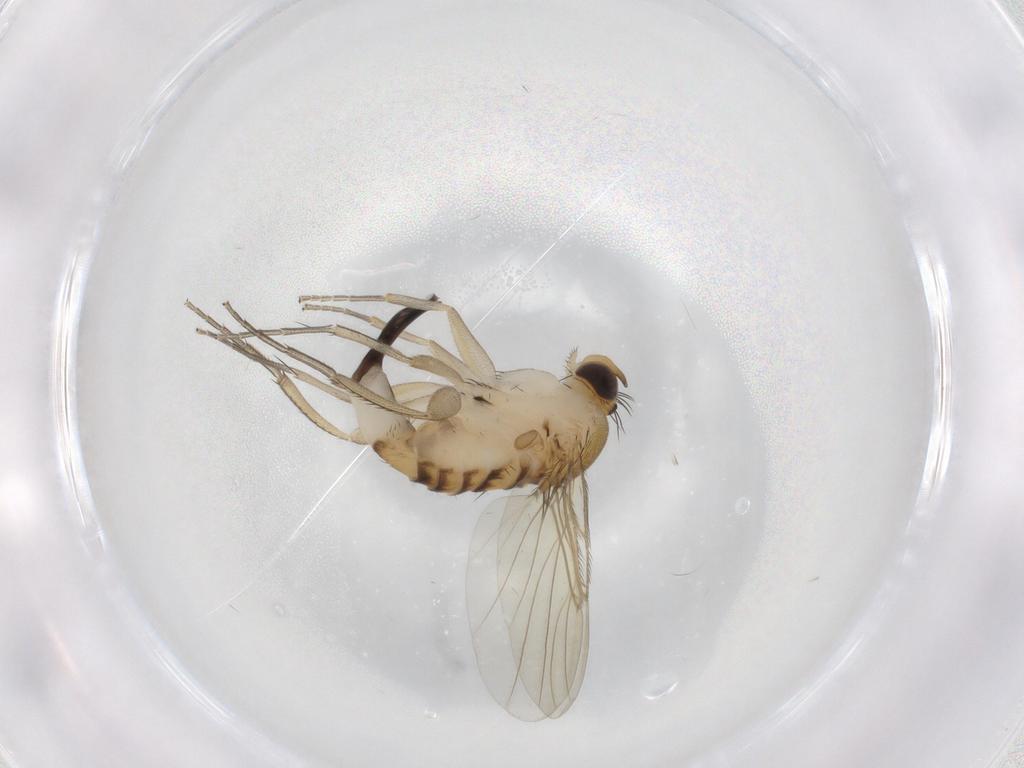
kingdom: Animalia
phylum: Arthropoda
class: Insecta
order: Diptera
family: Phoridae
